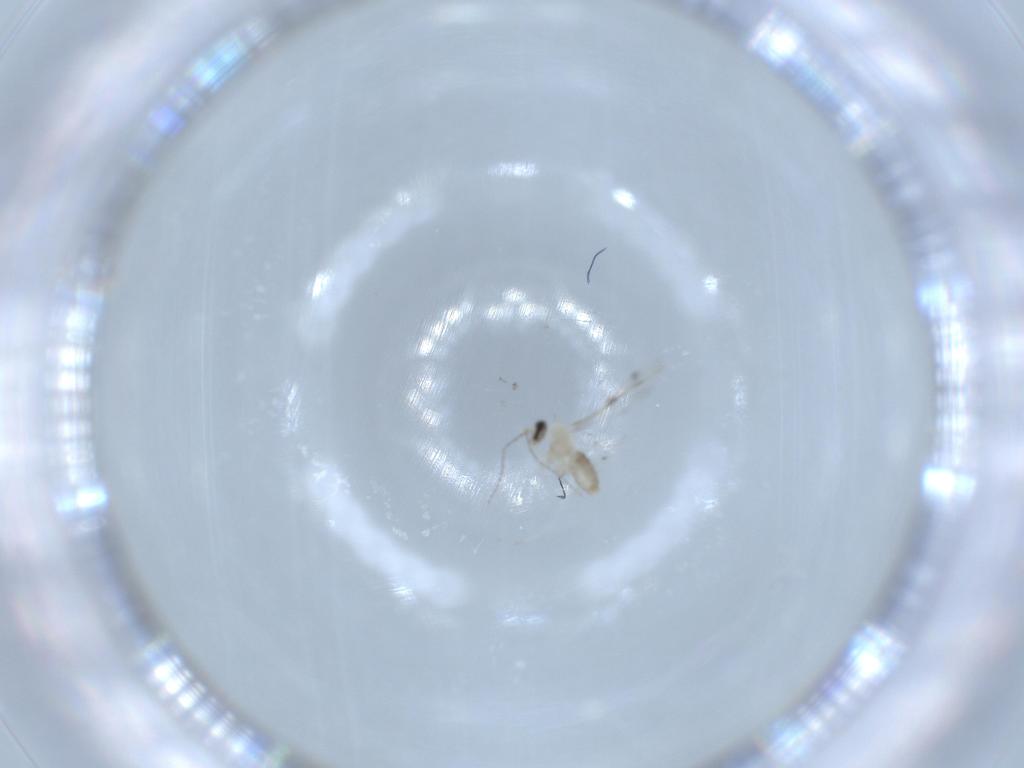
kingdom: Animalia
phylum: Arthropoda
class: Insecta
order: Diptera
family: Cecidomyiidae
